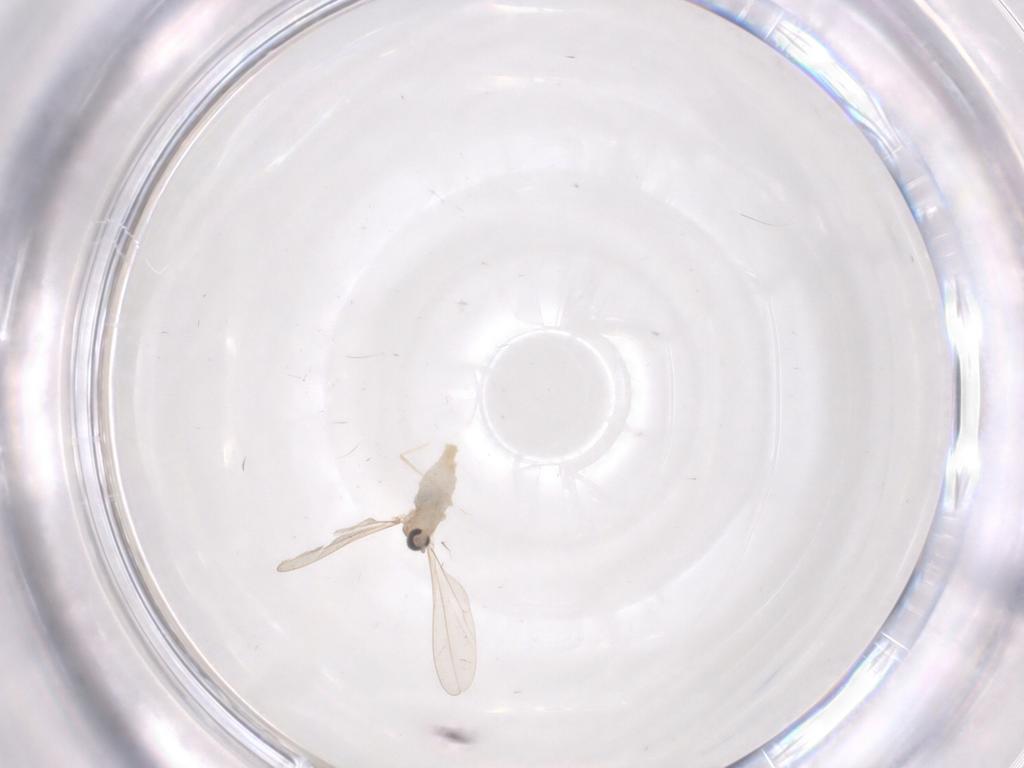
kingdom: Animalia
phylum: Arthropoda
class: Insecta
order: Diptera
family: Cecidomyiidae
